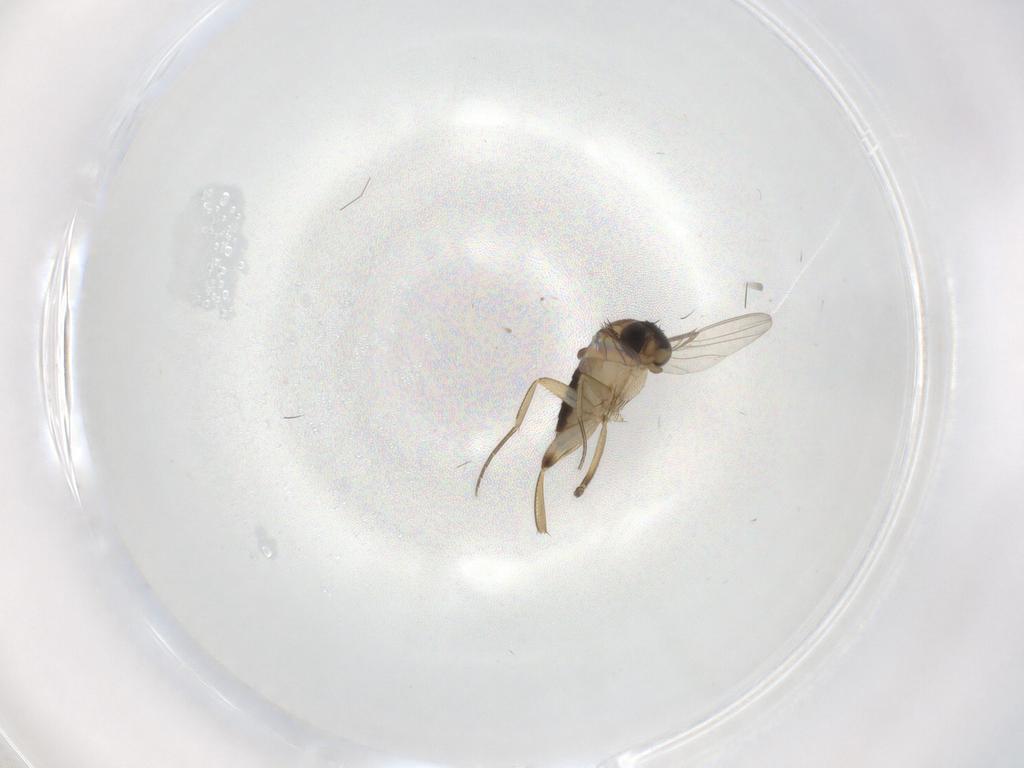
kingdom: Animalia
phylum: Arthropoda
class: Insecta
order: Diptera
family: Phoridae
